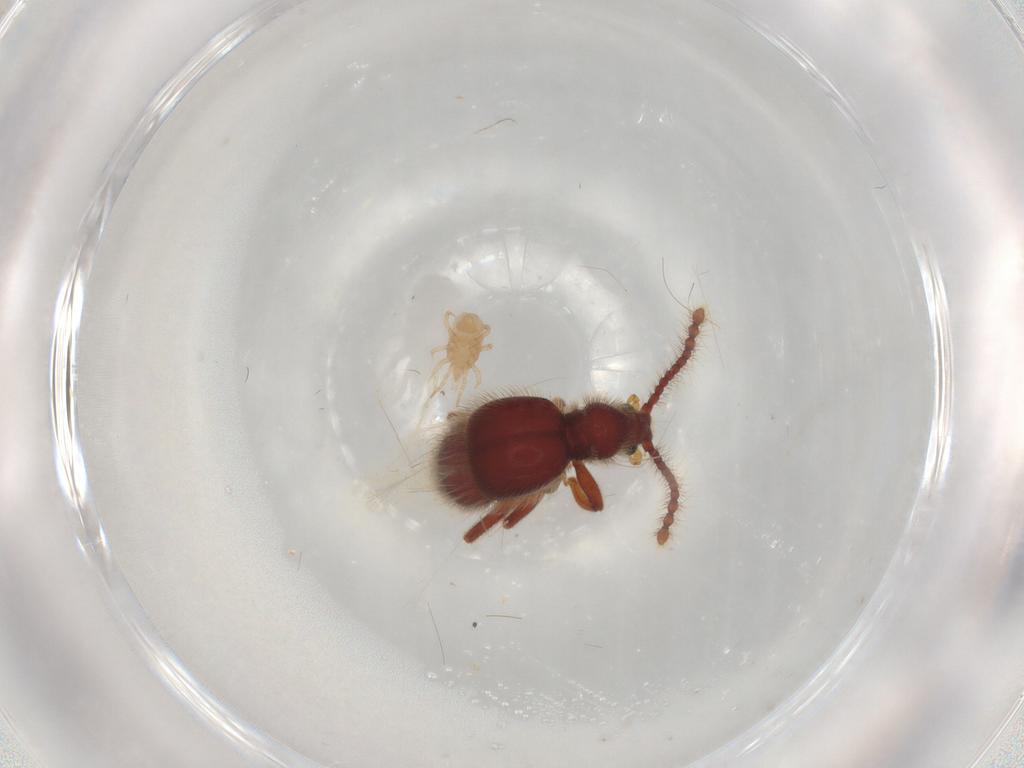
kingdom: Animalia
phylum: Arthropoda
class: Insecta
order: Coleoptera
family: Staphylinidae
